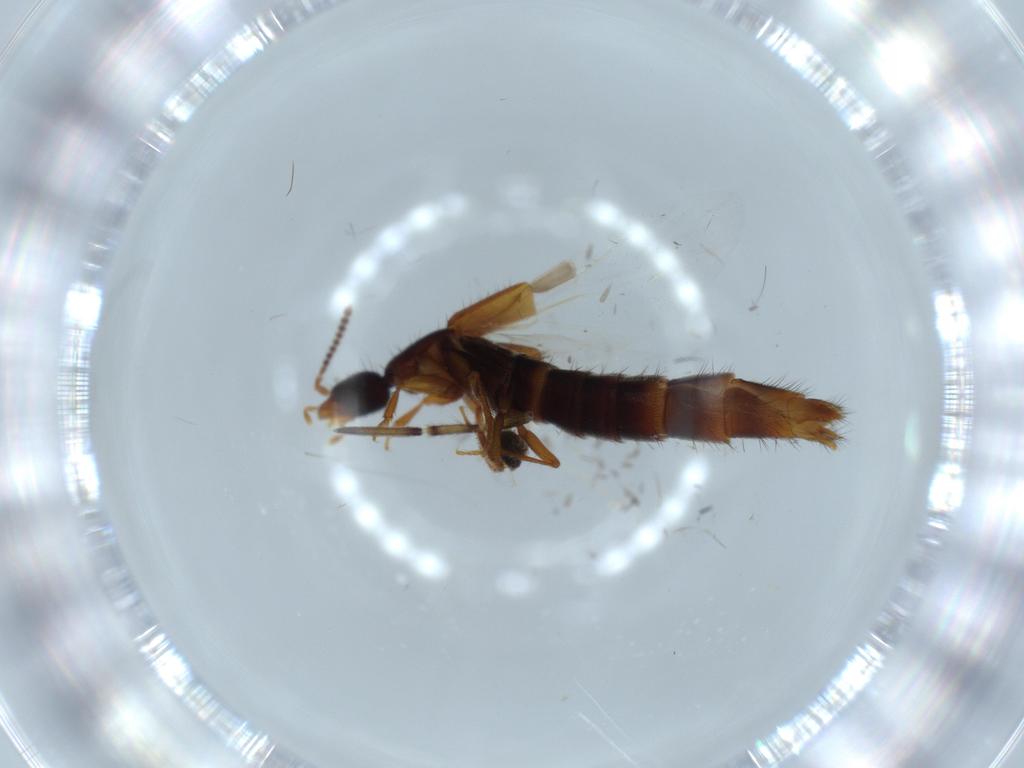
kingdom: Animalia
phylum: Arthropoda
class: Insecta
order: Coleoptera
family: Staphylinidae
